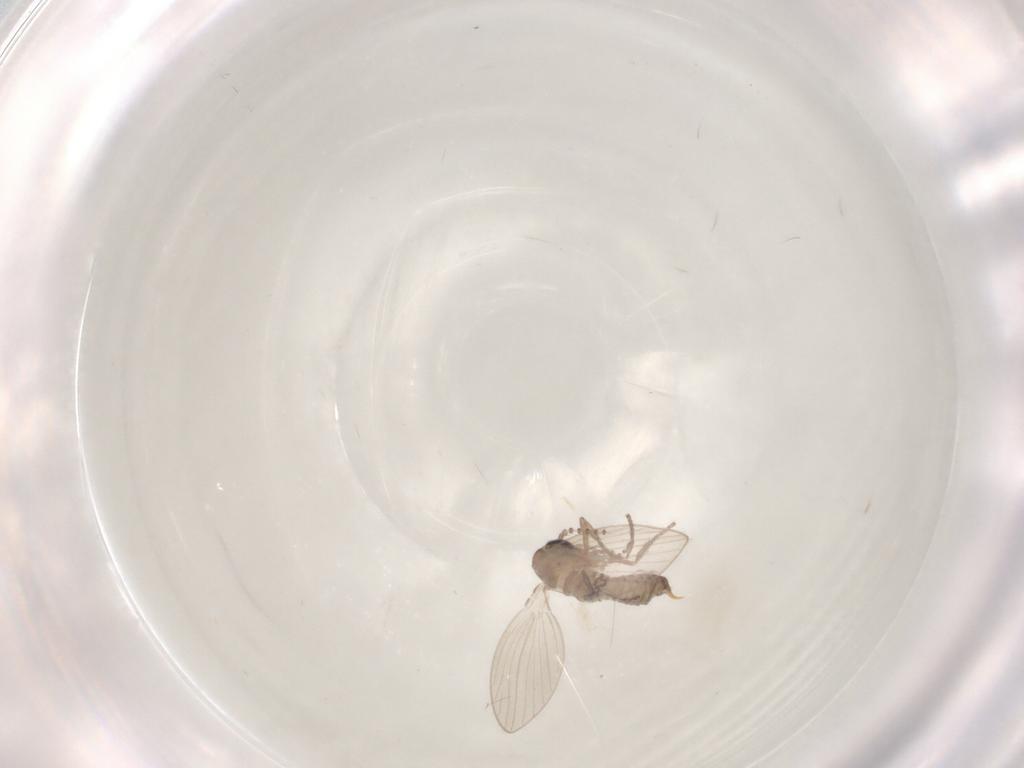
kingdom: Animalia
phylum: Arthropoda
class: Insecta
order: Diptera
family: Psychodidae
